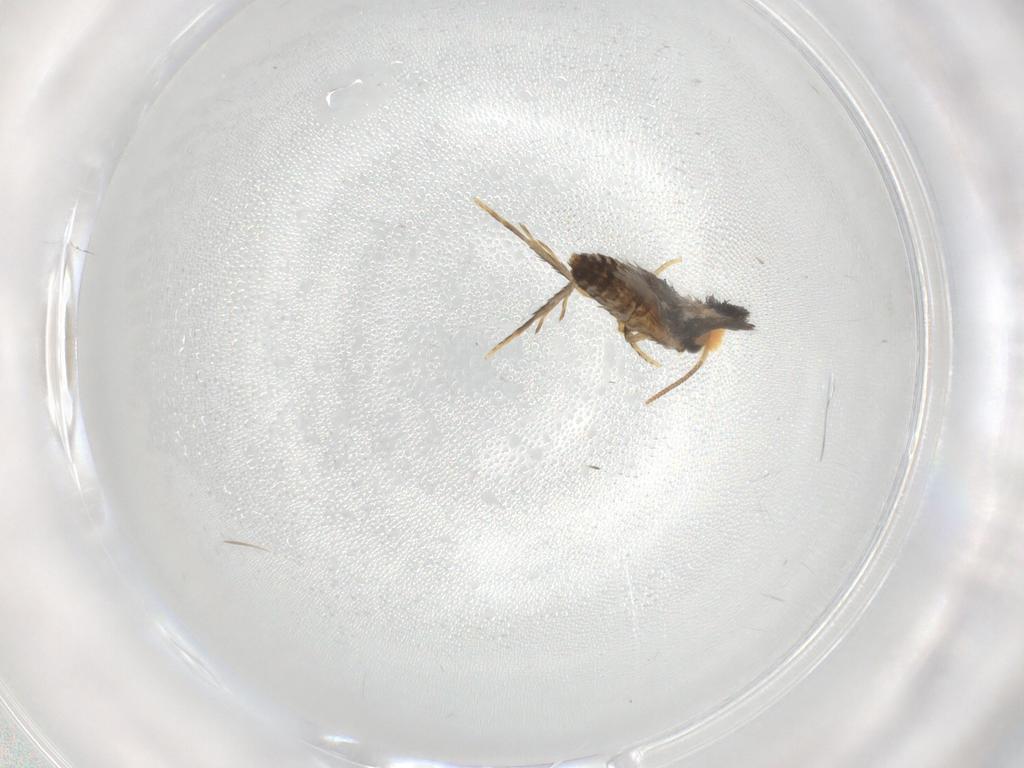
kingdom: Animalia
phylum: Arthropoda
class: Insecta
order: Lepidoptera
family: Nepticulidae
